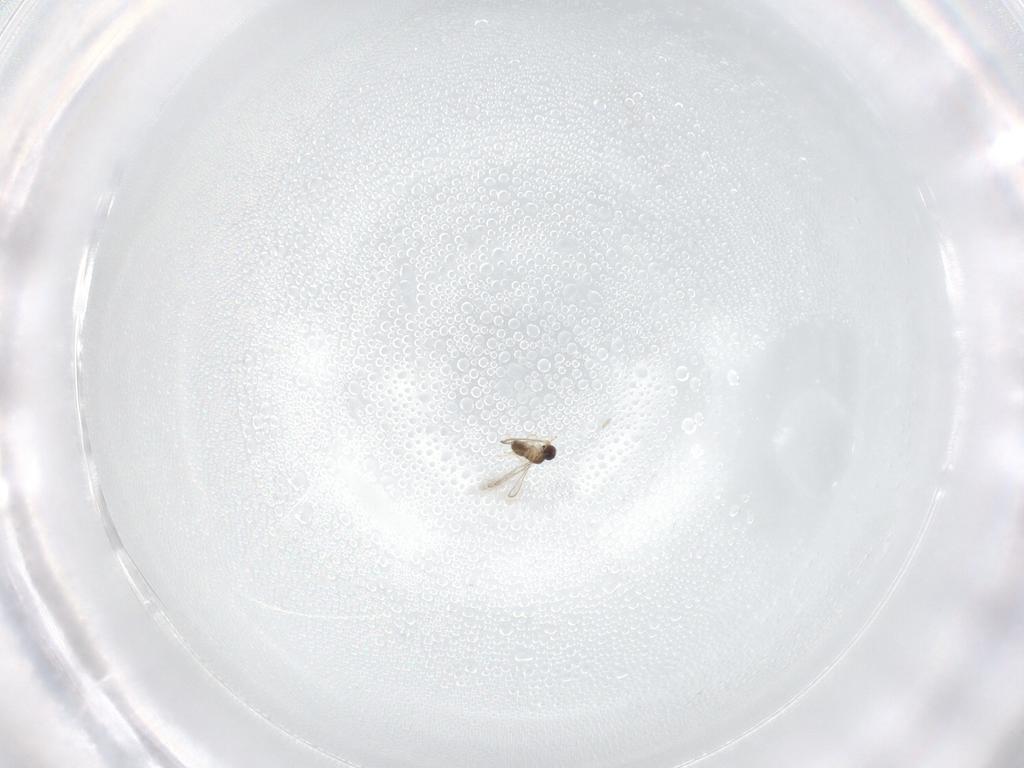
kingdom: Animalia
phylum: Arthropoda
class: Insecta
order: Hymenoptera
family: Mymaridae
